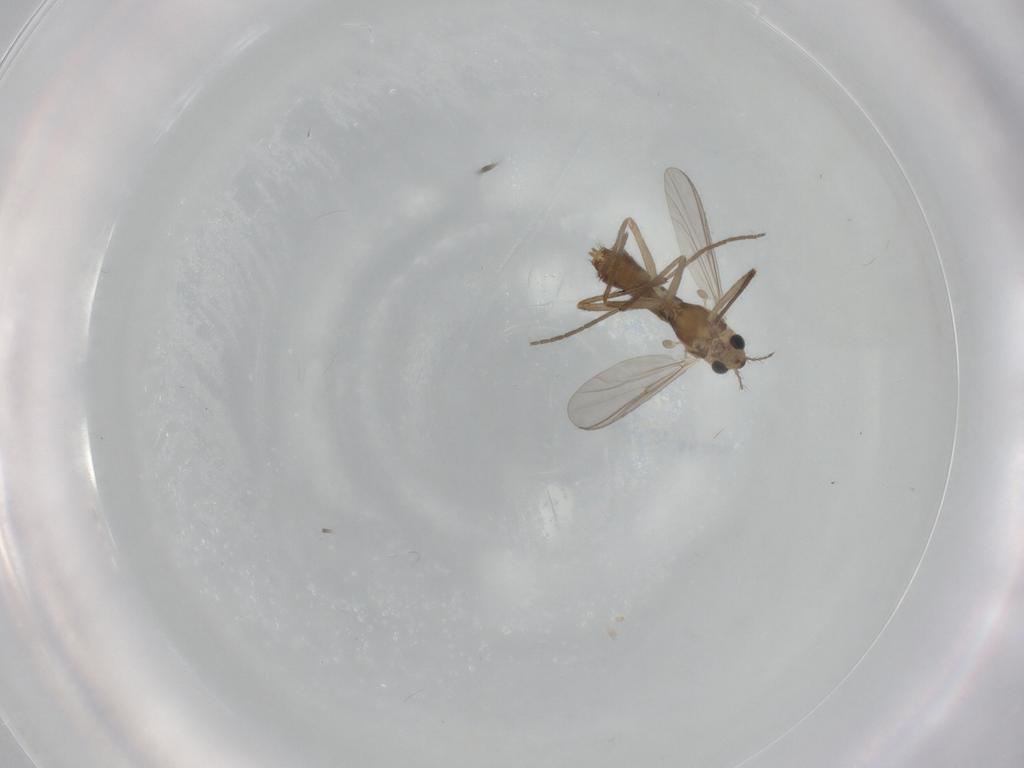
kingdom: Animalia
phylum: Arthropoda
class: Insecta
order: Diptera
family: Chironomidae
